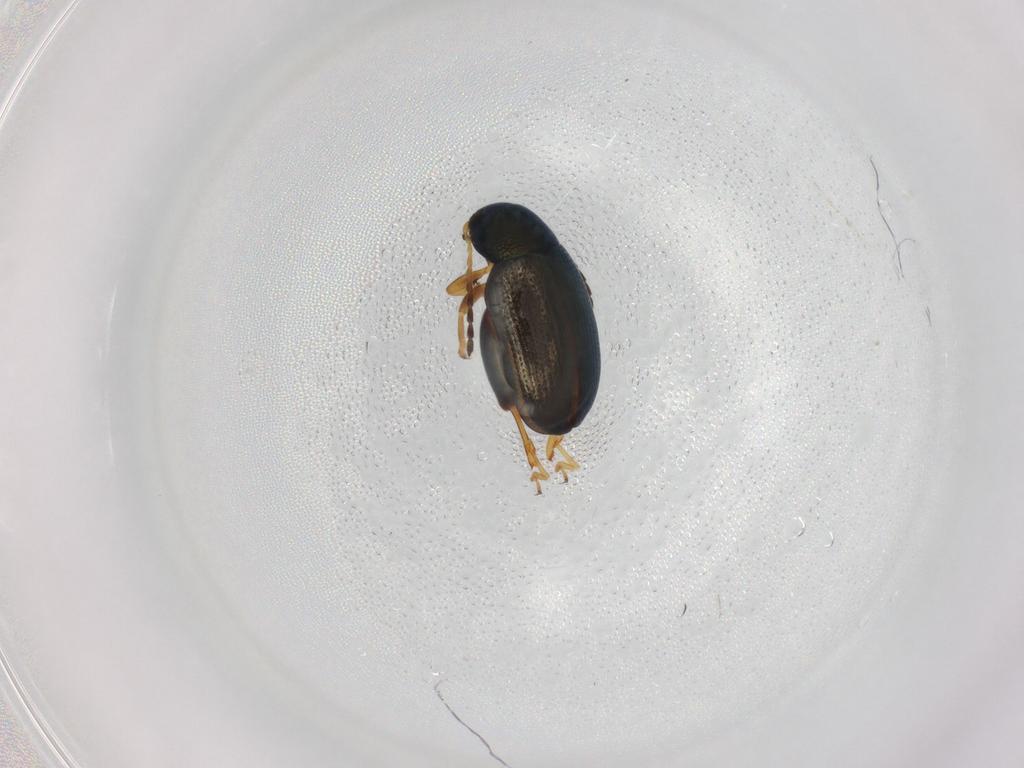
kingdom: Animalia
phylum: Arthropoda
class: Insecta
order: Coleoptera
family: Chrysomelidae
